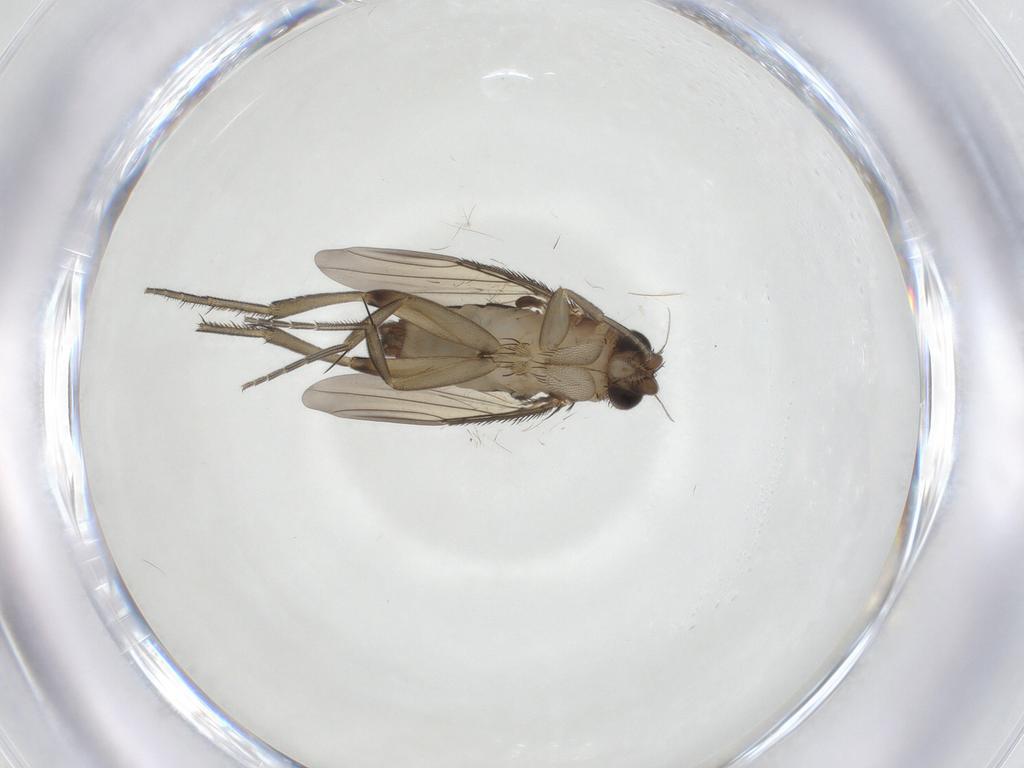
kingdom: Animalia
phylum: Arthropoda
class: Insecta
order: Diptera
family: Phoridae
